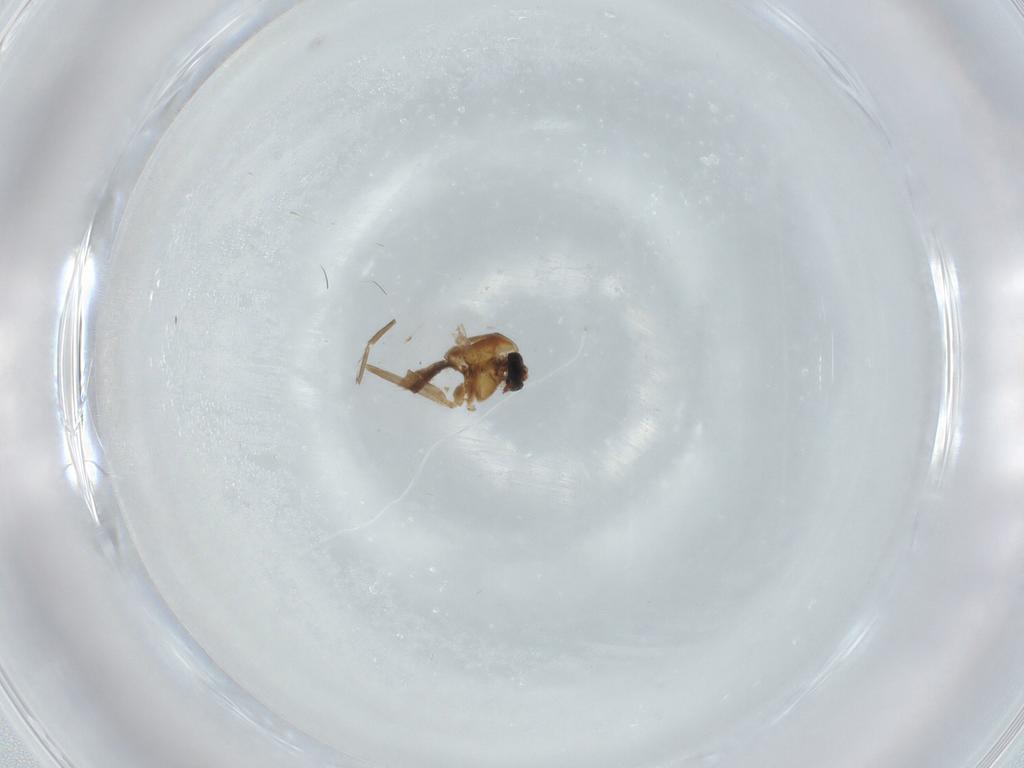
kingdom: Animalia
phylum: Arthropoda
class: Insecta
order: Diptera
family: Chironomidae
